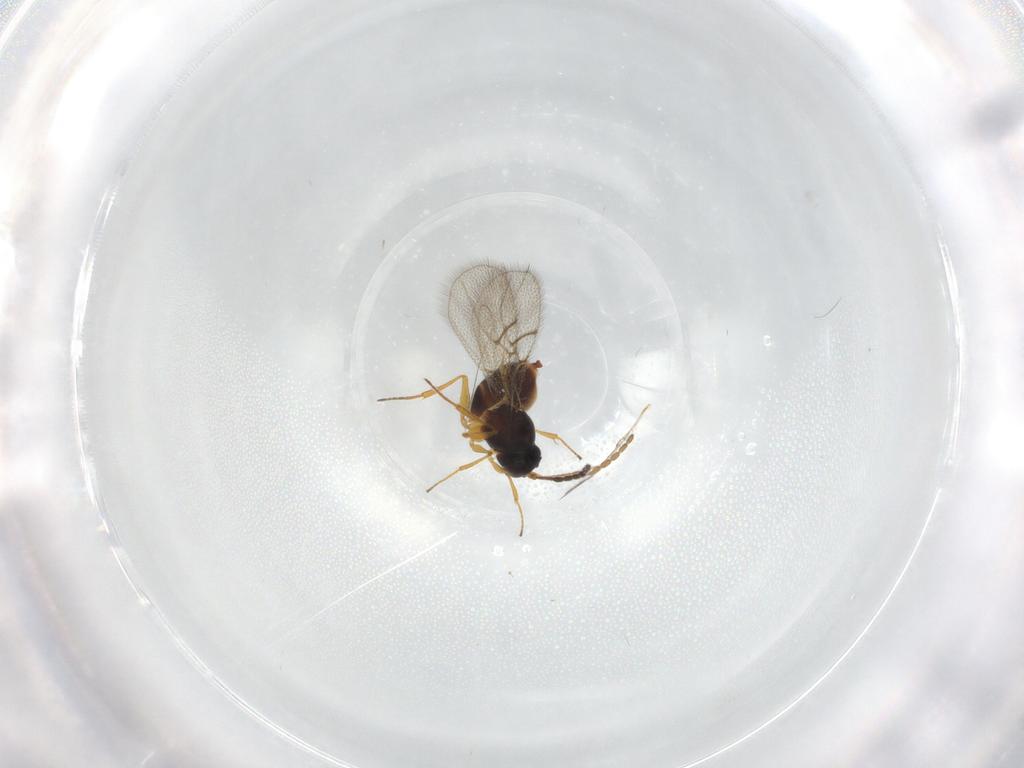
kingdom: Animalia
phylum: Arthropoda
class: Insecta
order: Hymenoptera
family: Figitidae
